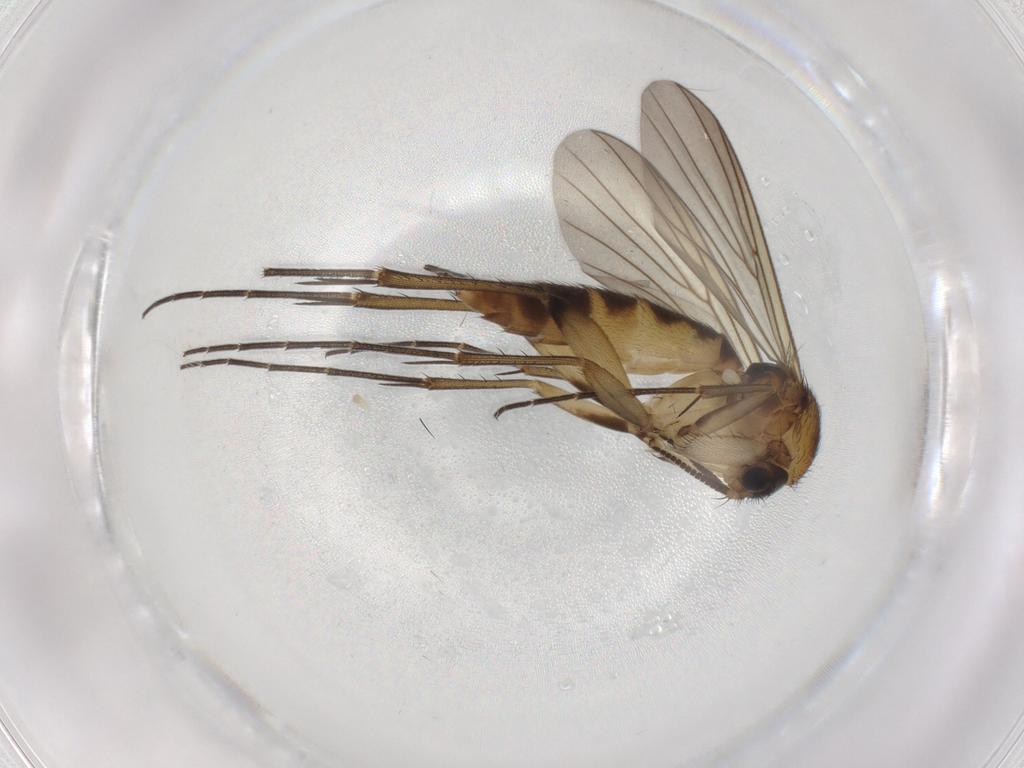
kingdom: Animalia
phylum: Arthropoda
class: Insecta
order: Diptera
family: Mycetophilidae
